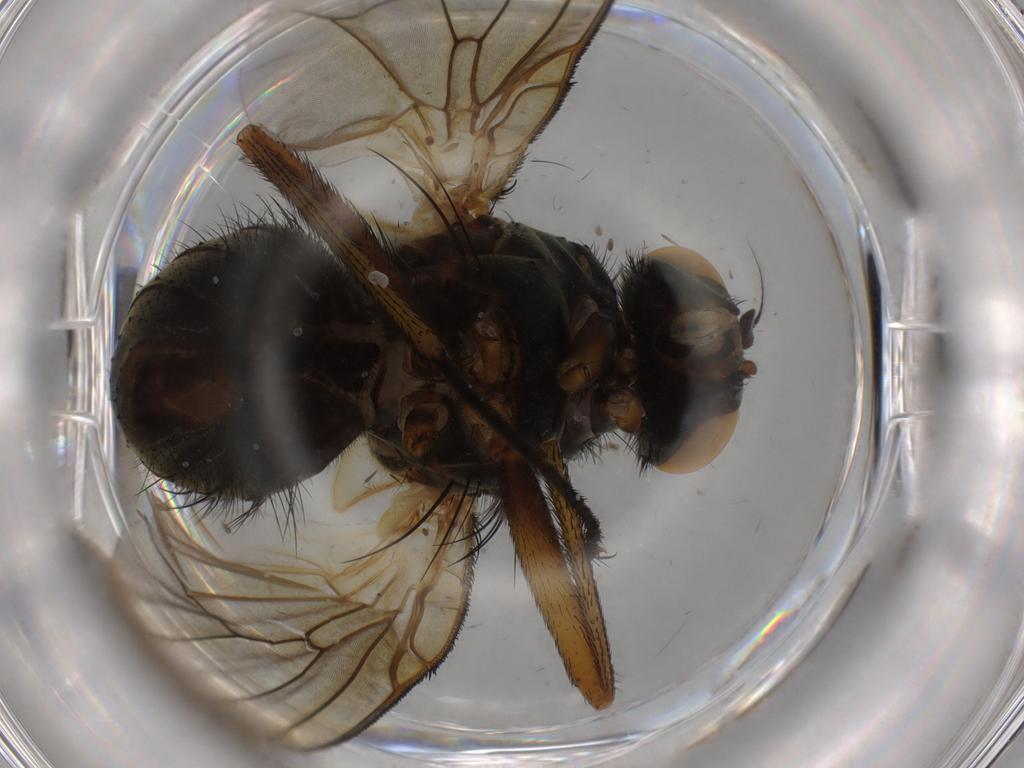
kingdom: Animalia
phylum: Arthropoda
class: Insecta
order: Diptera
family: Muscidae
